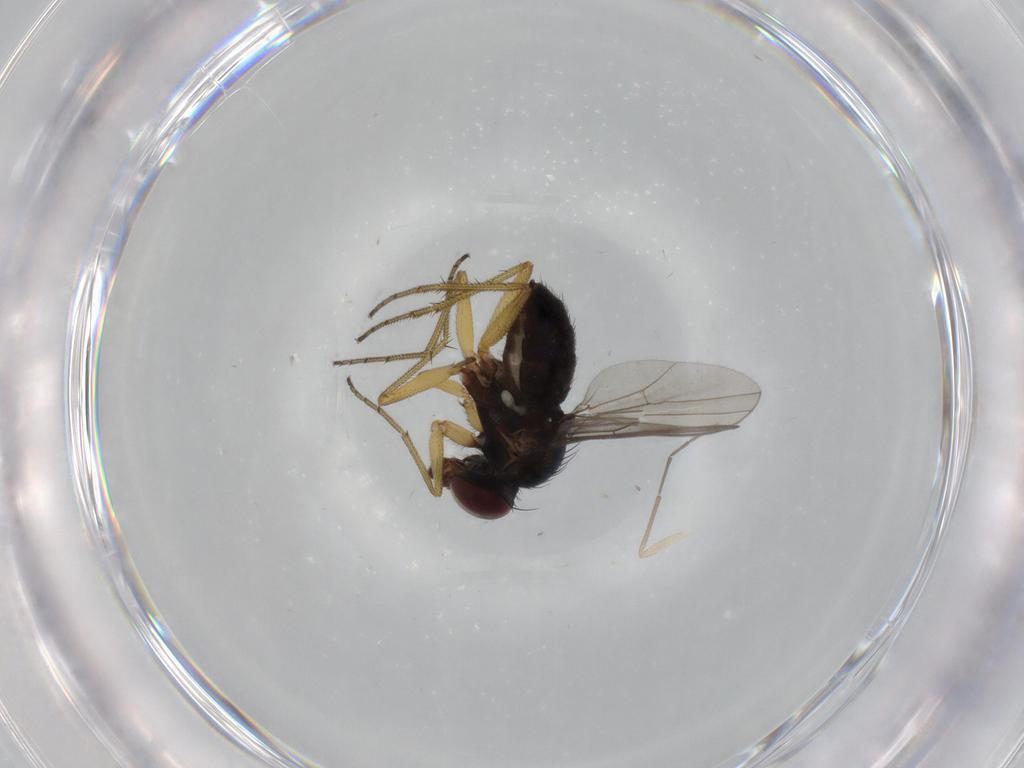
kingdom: Animalia
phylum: Arthropoda
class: Insecta
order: Diptera
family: Dolichopodidae
